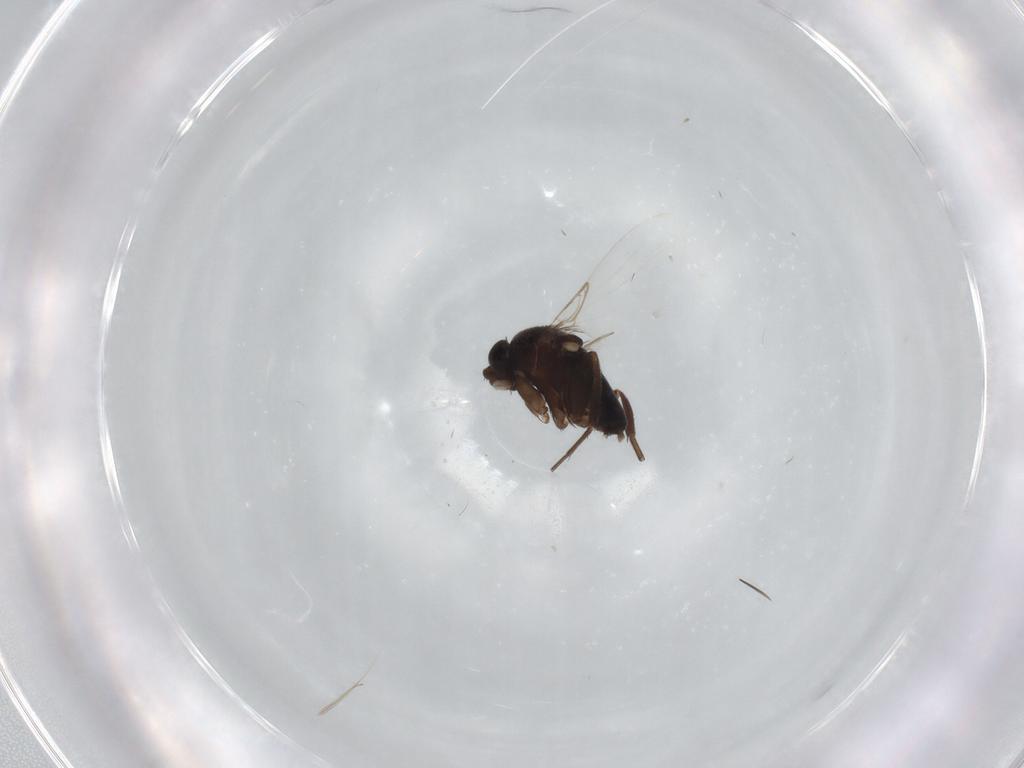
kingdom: Animalia
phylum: Arthropoda
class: Insecta
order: Diptera
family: Phoridae
